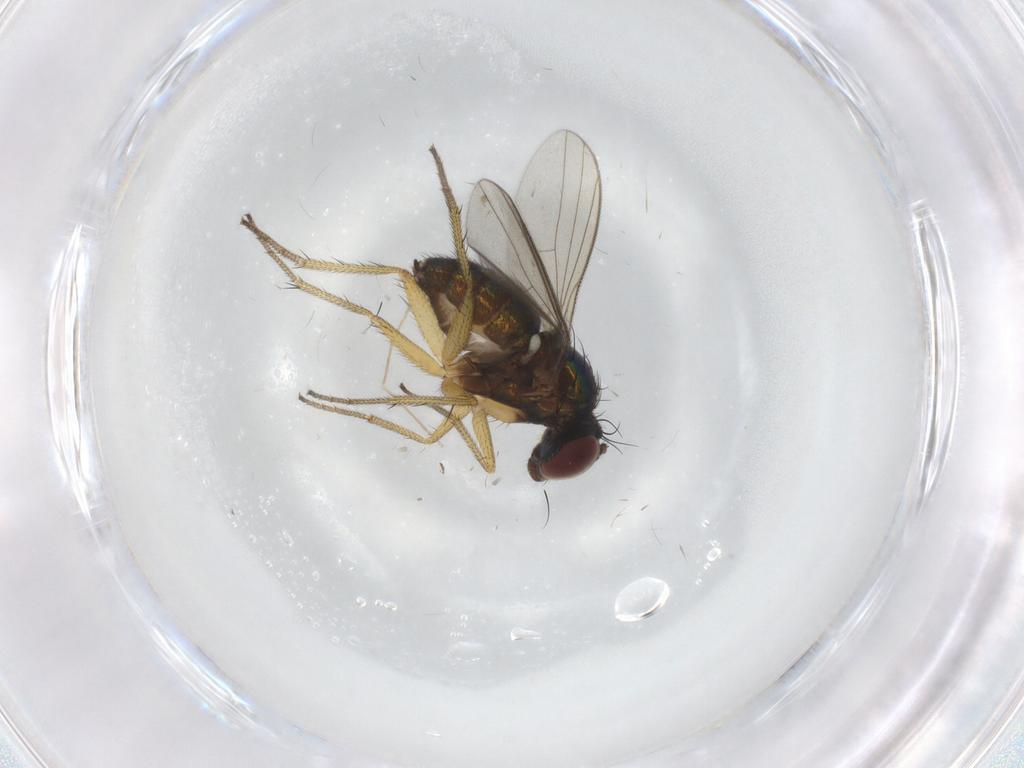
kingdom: Animalia
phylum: Arthropoda
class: Insecta
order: Diptera
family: Dolichopodidae
